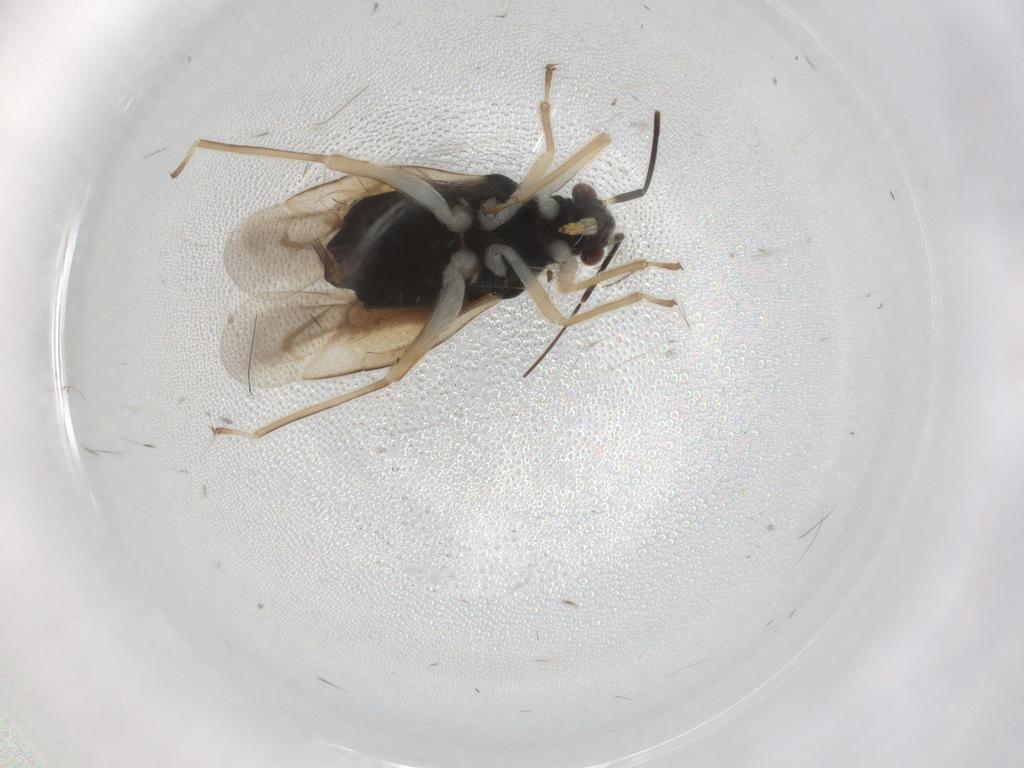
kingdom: Animalia
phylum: Arthropoda
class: Insecta
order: Hemiptera
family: Miridae
